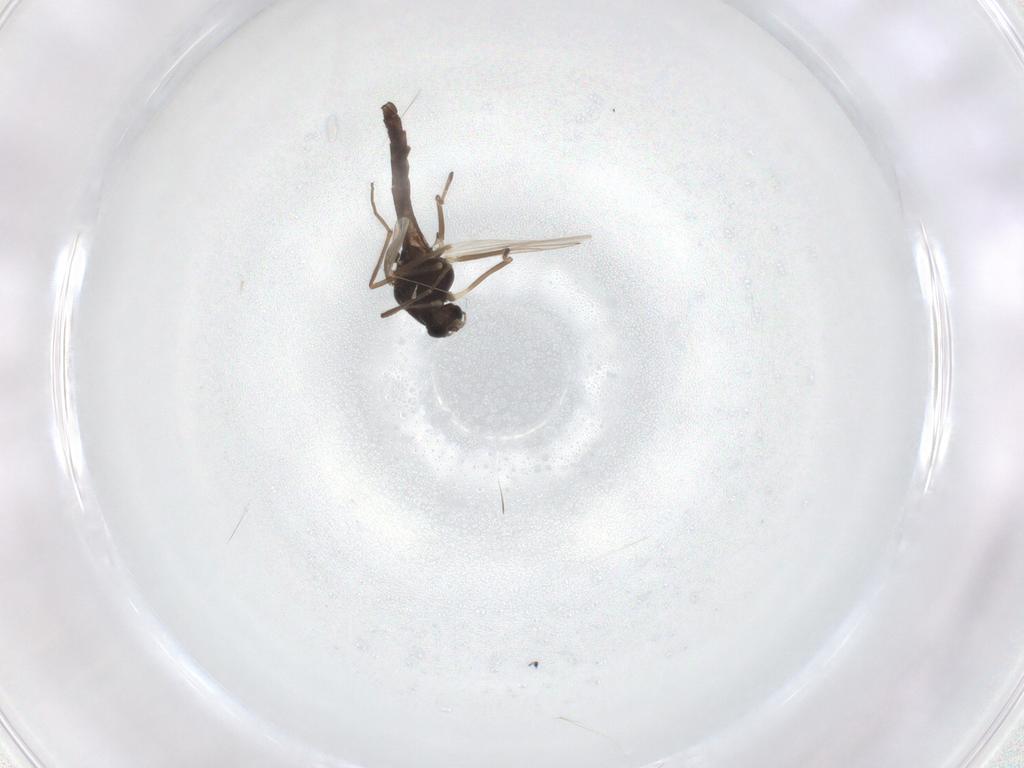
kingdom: Animalia
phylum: Arthropoda
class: Insecta
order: Diptera
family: Chironomidae
